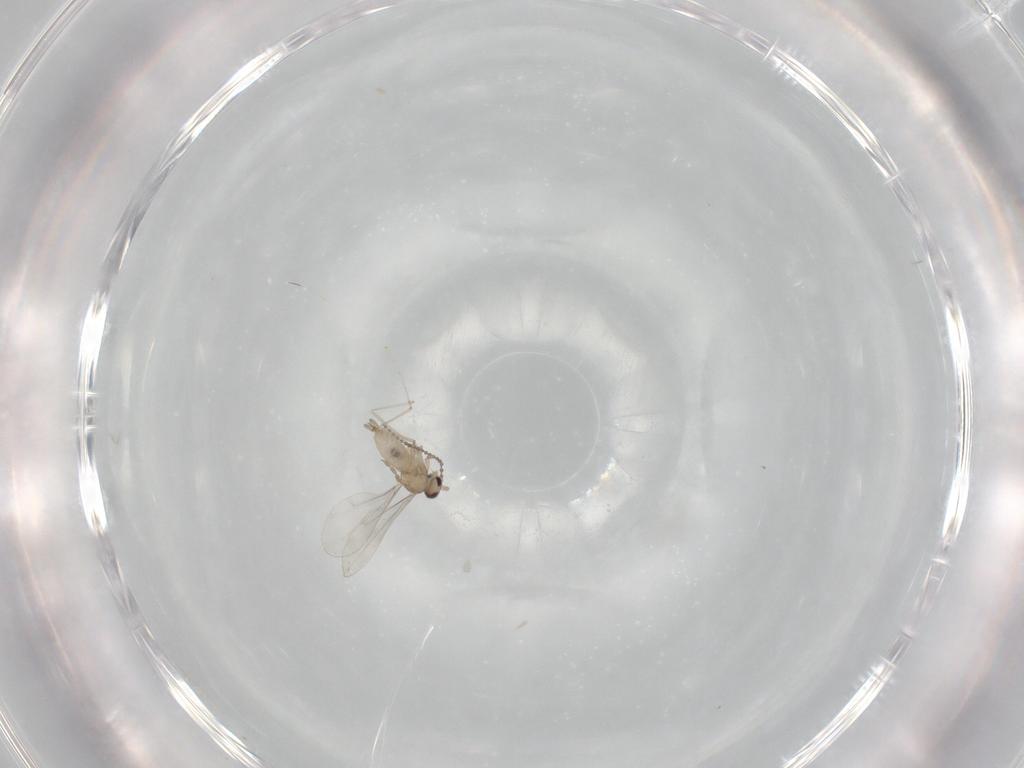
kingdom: Animalia
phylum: Arthropoda
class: Insecta
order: Diptera
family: Cecidomyiidae
